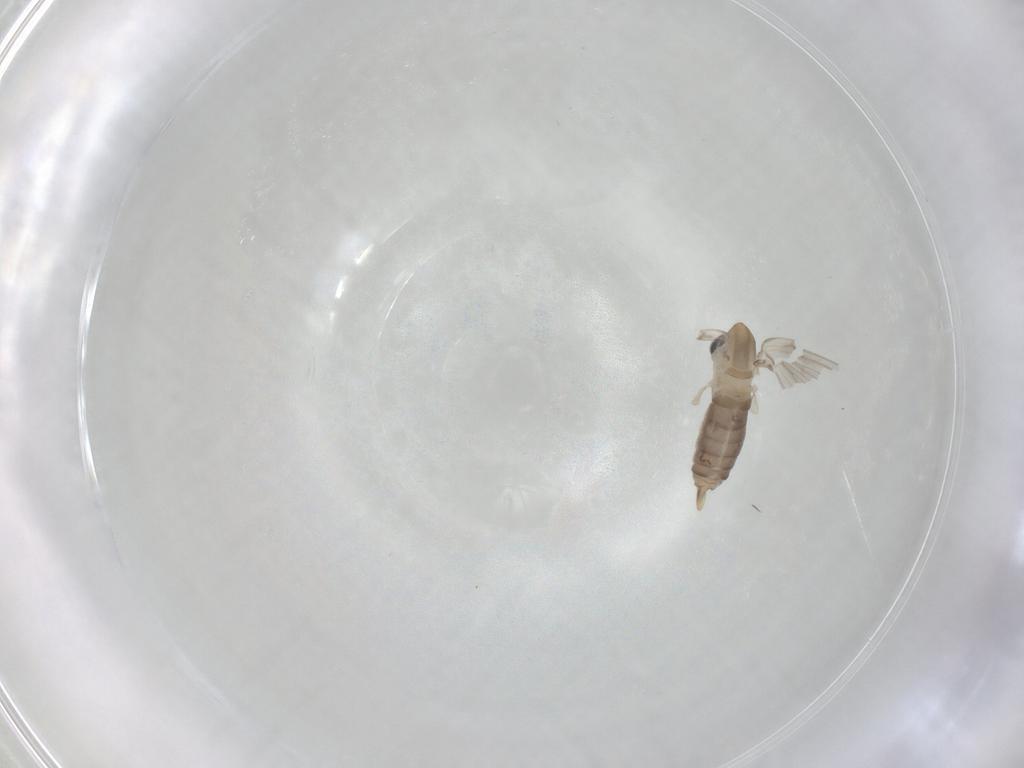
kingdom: Animalia
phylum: Arthropoda
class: Insecta
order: Diptera
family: Psychodidae
